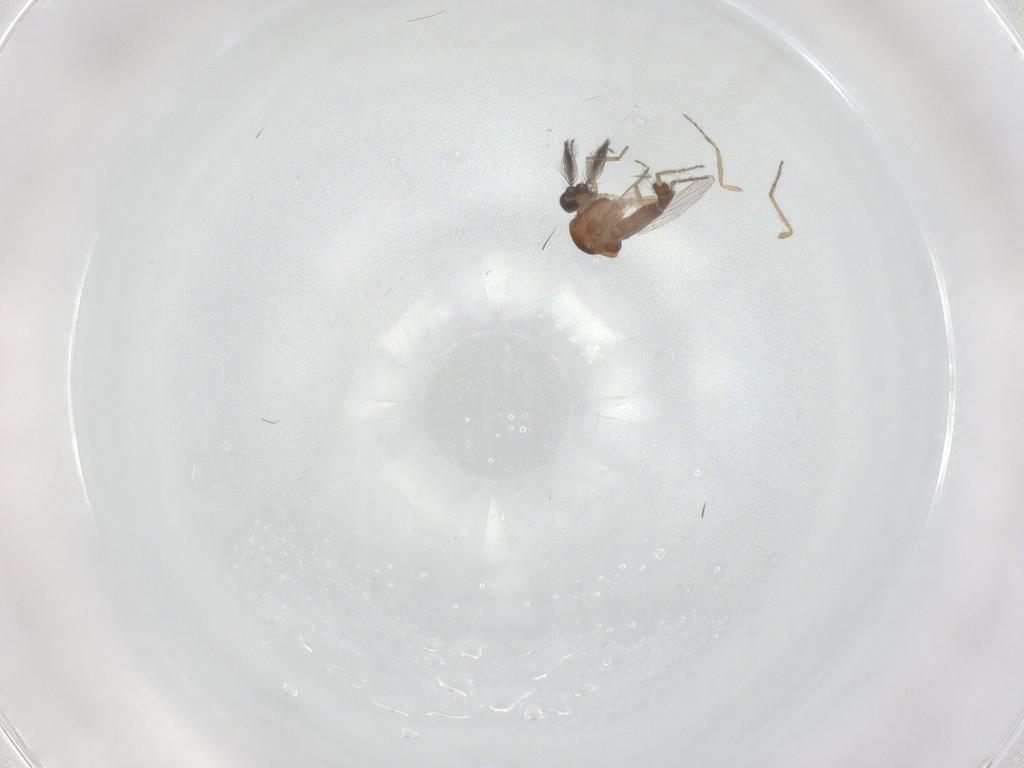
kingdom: Animalia
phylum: Arthropoda
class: Insecta
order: Diptera
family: Ceratopogonidae
